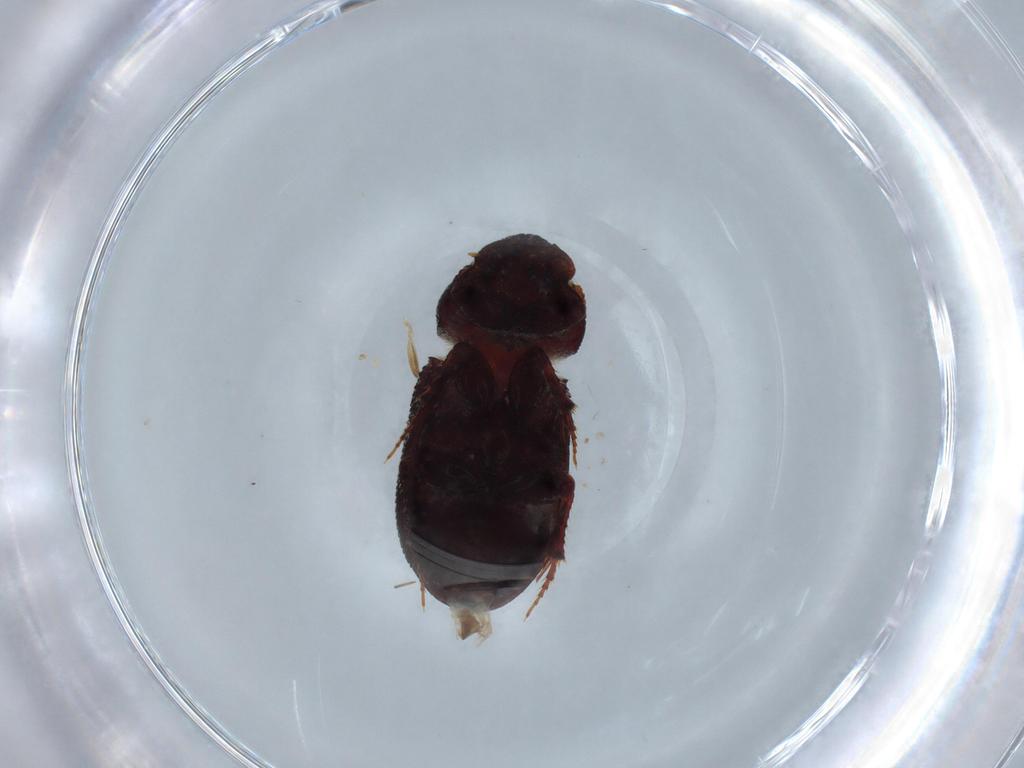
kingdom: Animalia
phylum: Arthropoda
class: Insecta
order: Coleoptera
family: Scarabaeidae
